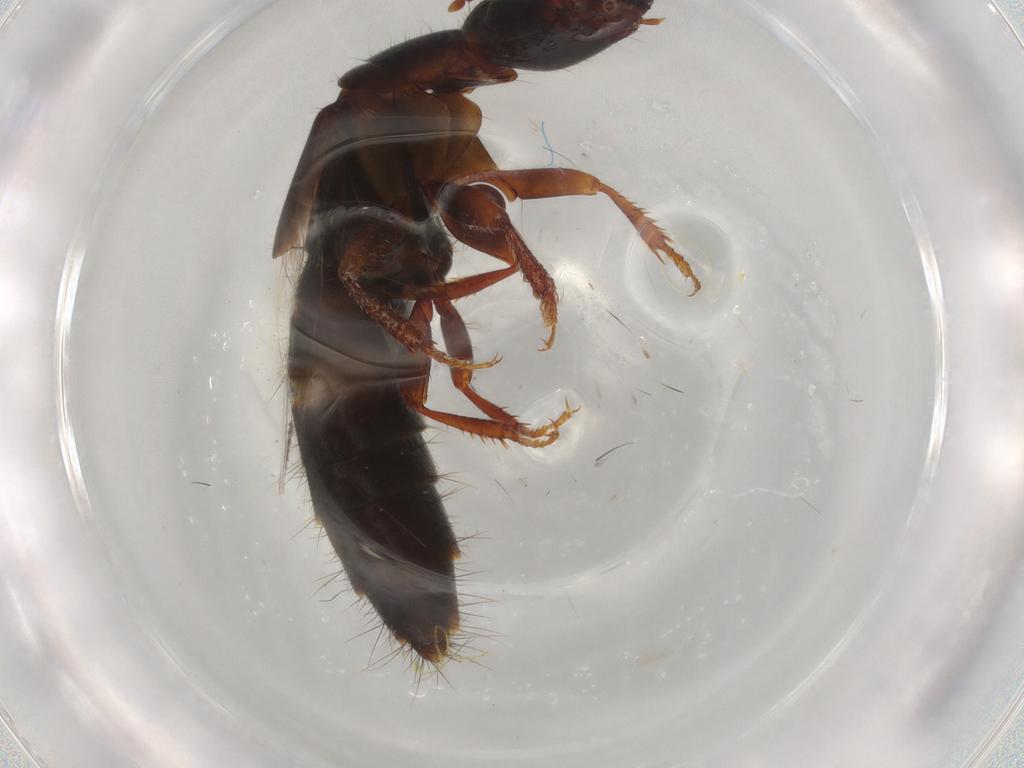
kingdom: Animalia
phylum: Arthropoda
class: Insecta
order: Coleoptera
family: Staphylinidae
